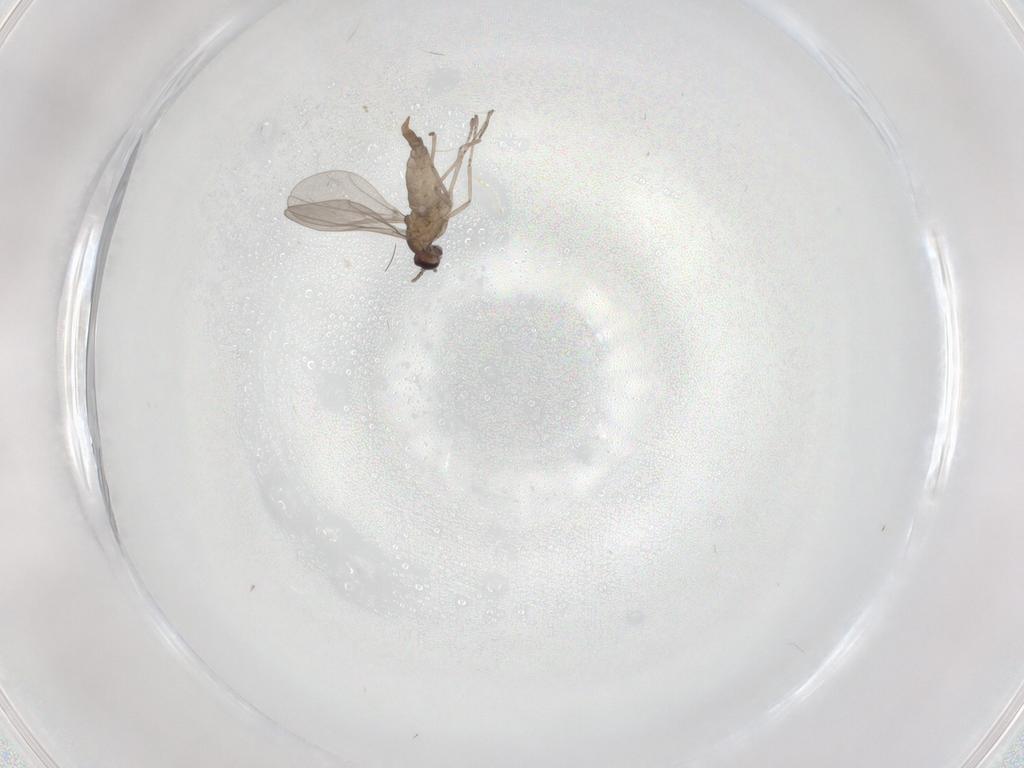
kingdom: Animalia
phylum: Arthropoda
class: Insecta
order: Diptera
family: Cecidomyiidae
